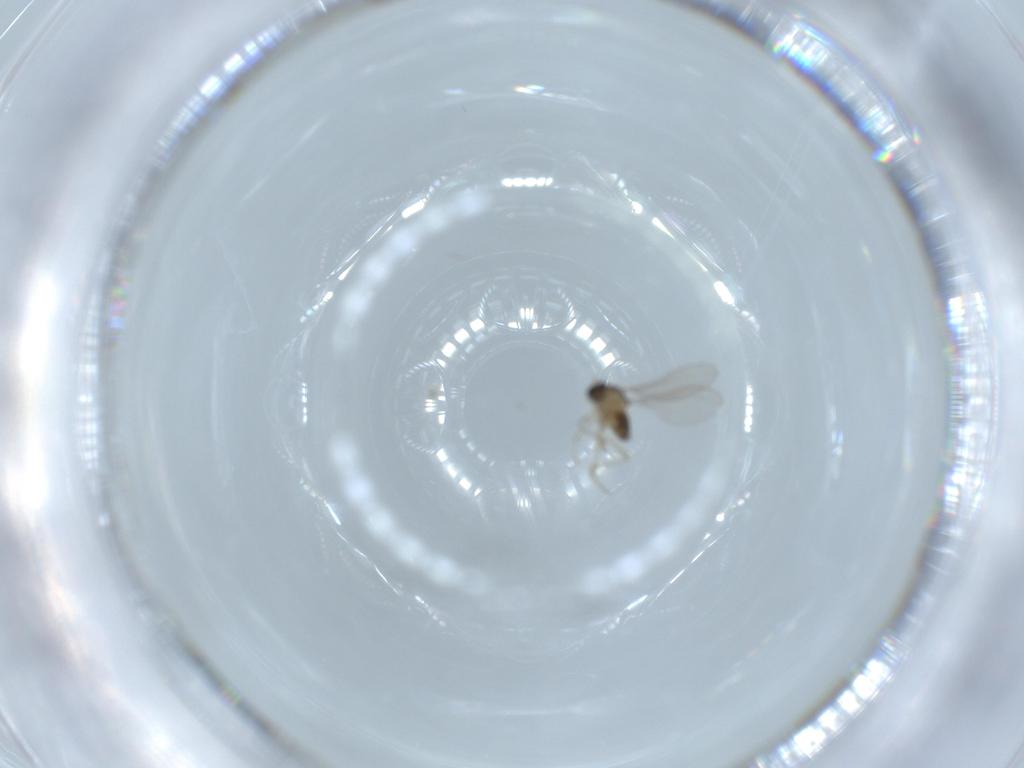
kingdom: Animalia
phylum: Arthropoda
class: Insecta
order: Diptera
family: Cecidomyiidae
